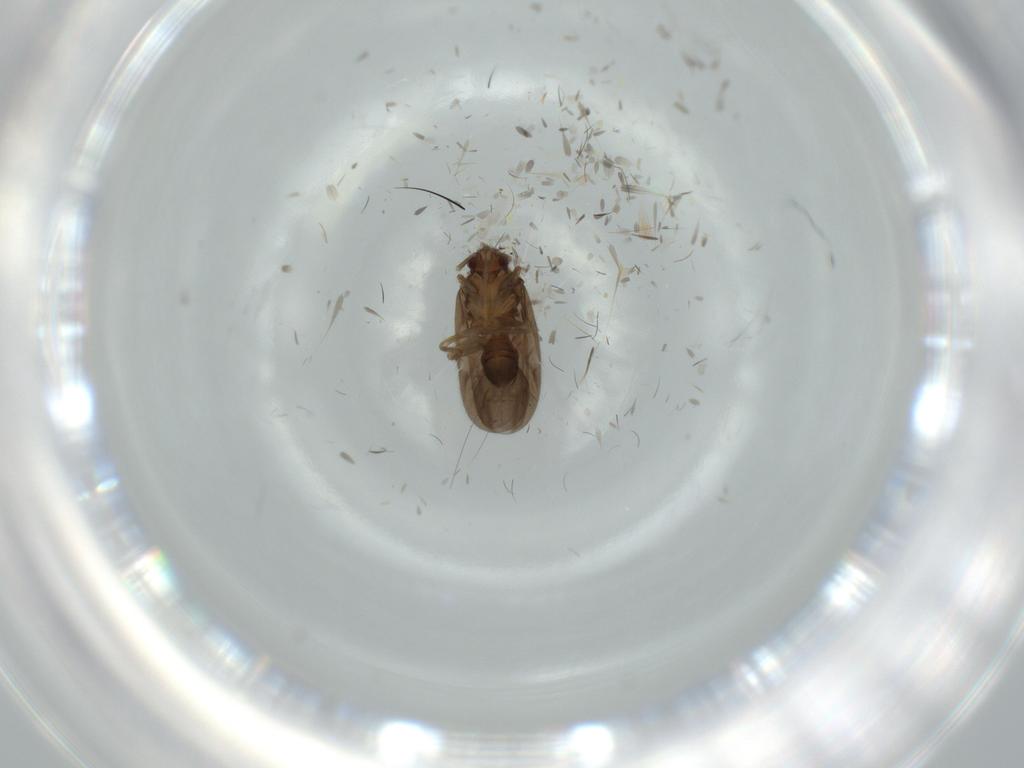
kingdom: Animalia
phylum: Arthropoda
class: Insecta
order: Hemiptera
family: Ceratocombidae
